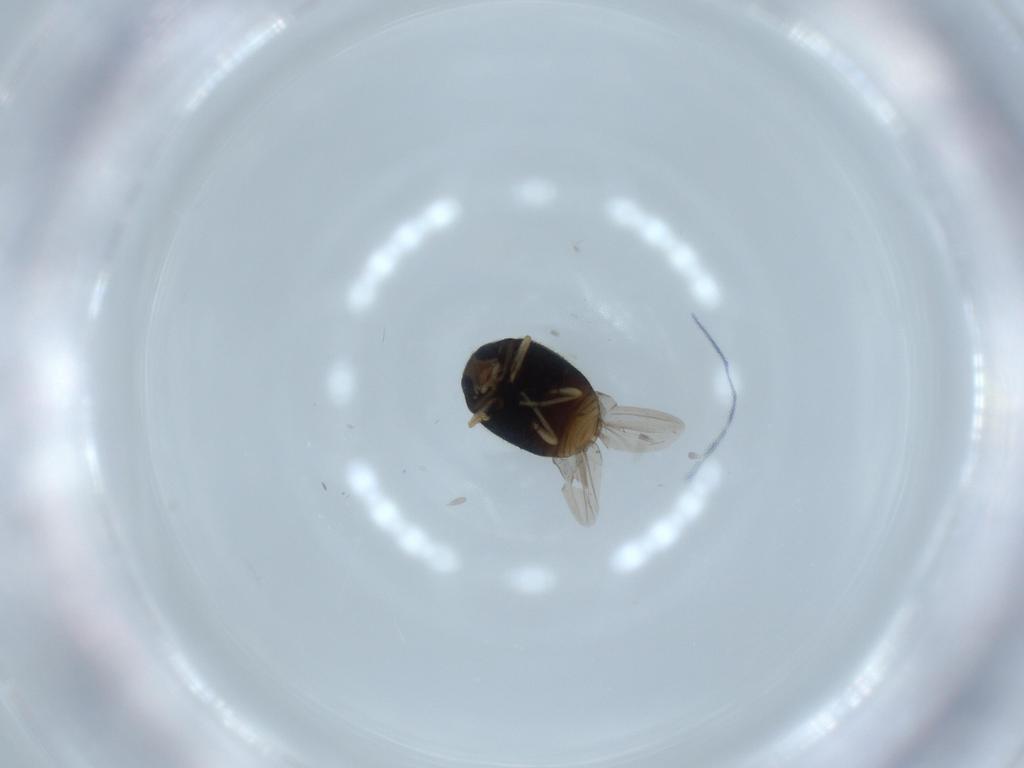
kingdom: Animalia
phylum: Arthropoda
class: Insecta
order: Coleoptera
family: Coccinellidae
